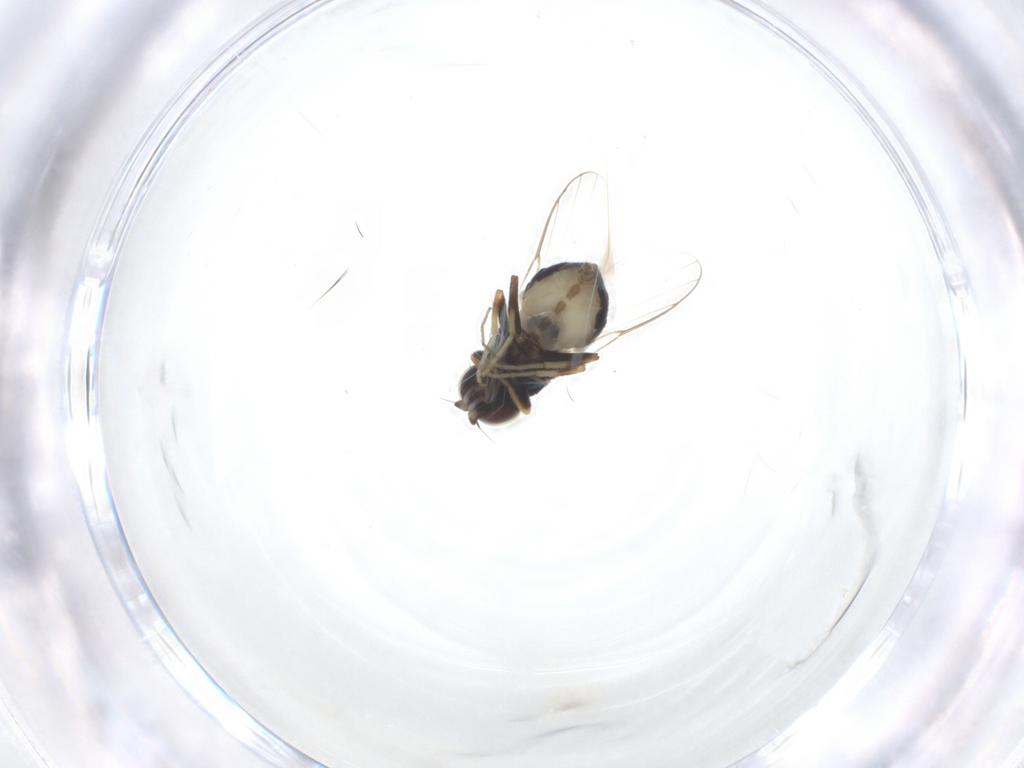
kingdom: Animalia
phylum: Arthropoda
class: Insecta
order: Diptera
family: Chloropidae
